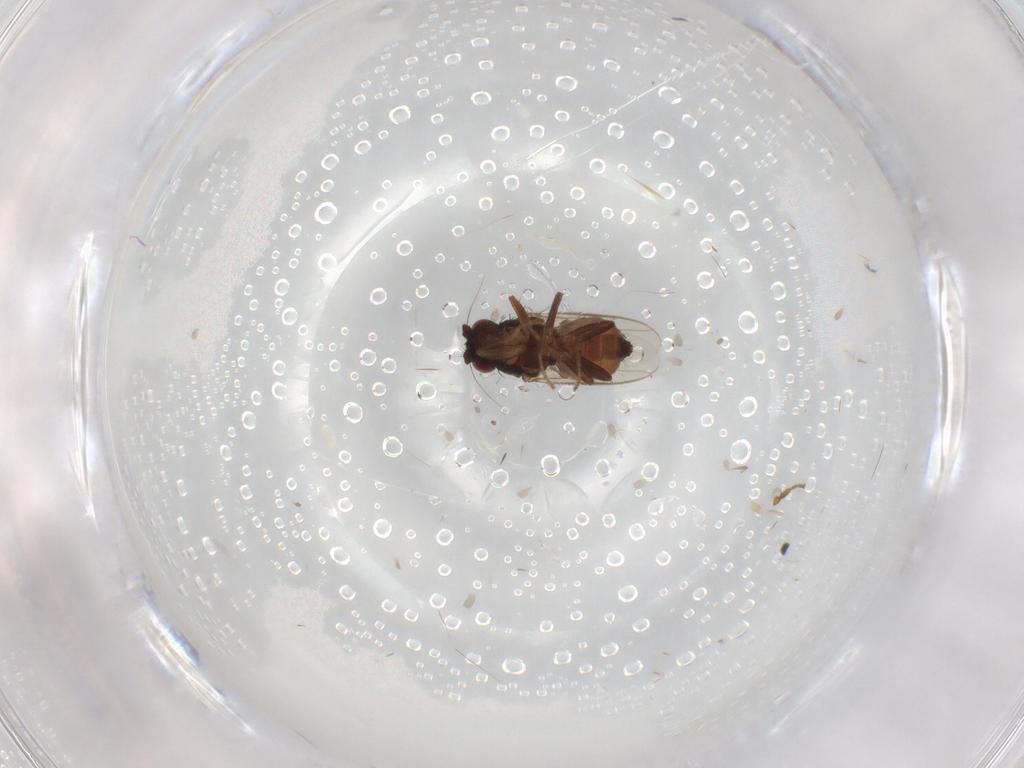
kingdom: Animalia
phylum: Arthropoda
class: Insecta
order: Diptera
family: Ceratopogonidae
